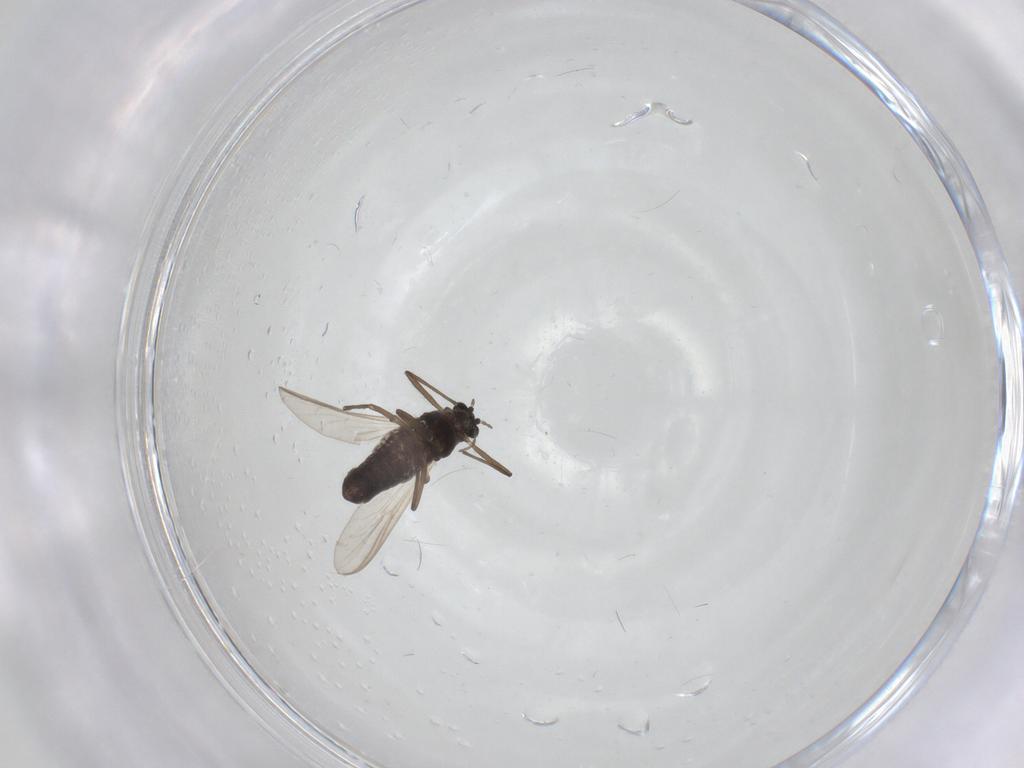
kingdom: Animalia
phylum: Arthropoda
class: Insecta
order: Diptera
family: Chironomidae
